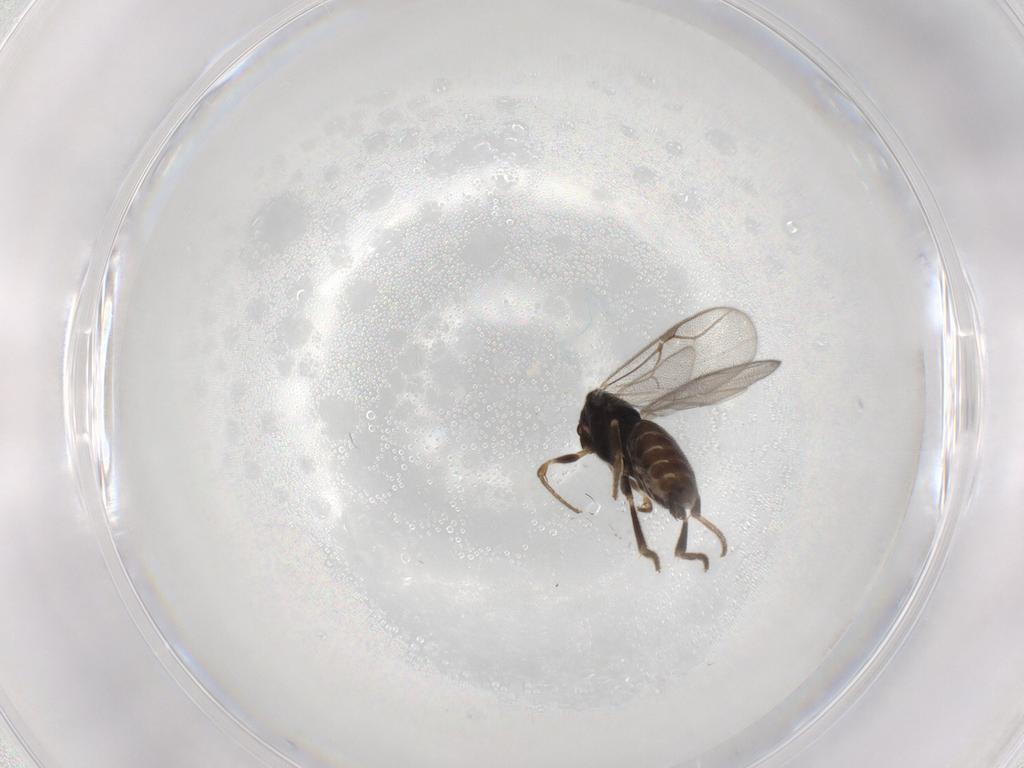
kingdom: Animalia
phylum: Arthropoda
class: Insecta
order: Hymenoptera
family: Dryinidae
